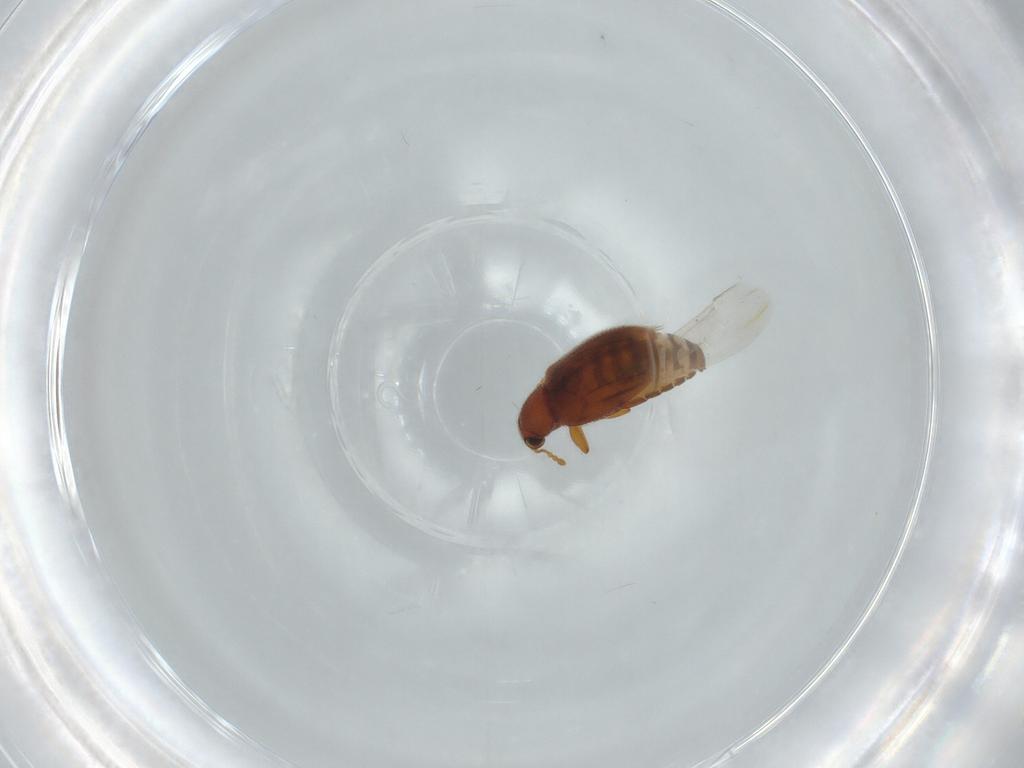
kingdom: Animalia
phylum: Arthropoda
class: Insecta
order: Coleoptera
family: Latridiidae
